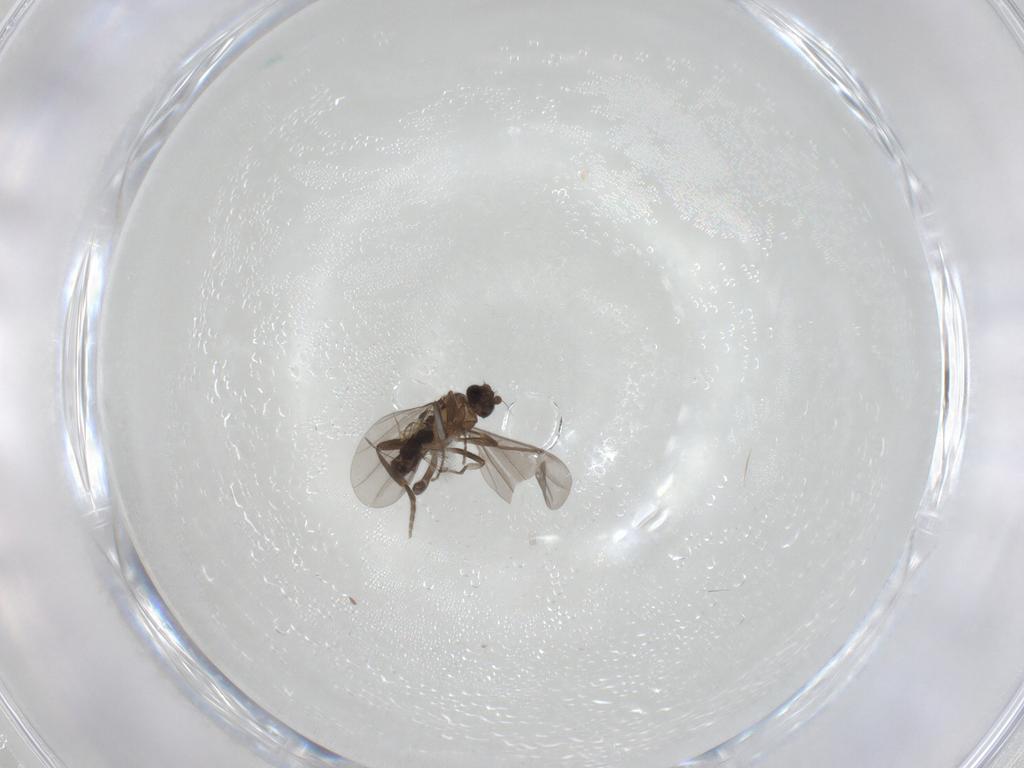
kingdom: Animalia
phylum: Arthropoda
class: Insecta
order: Diptera
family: Phoridae
